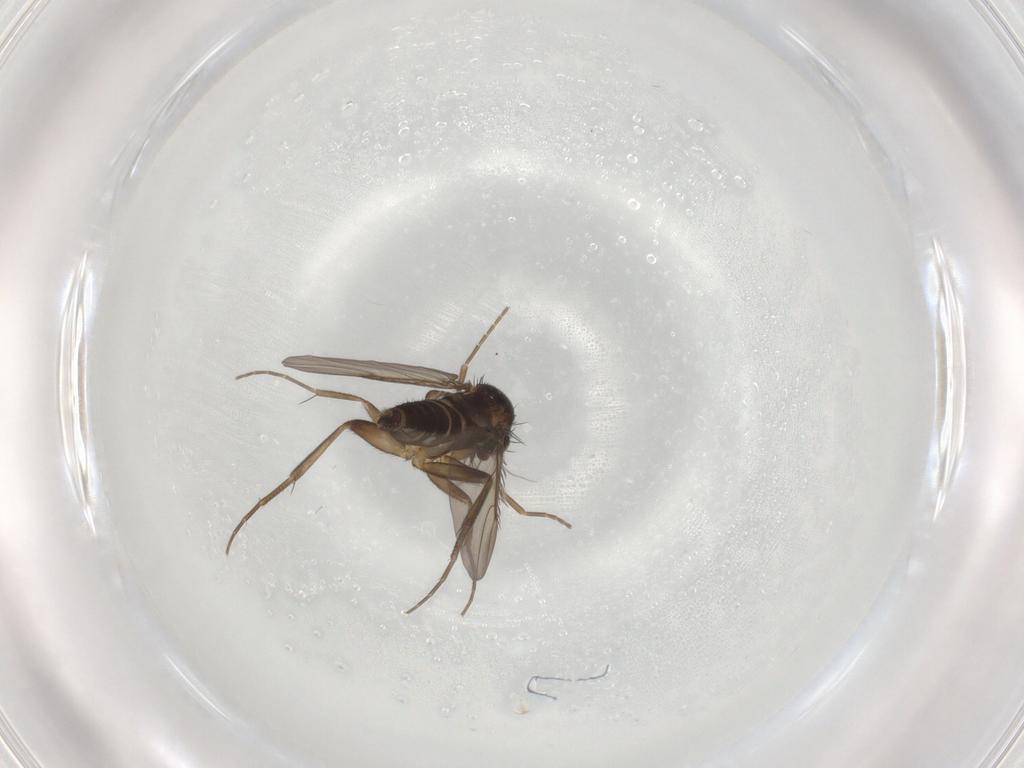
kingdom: Animalia
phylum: Arthropoda
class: Insecta
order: Diptera
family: Phoridae
